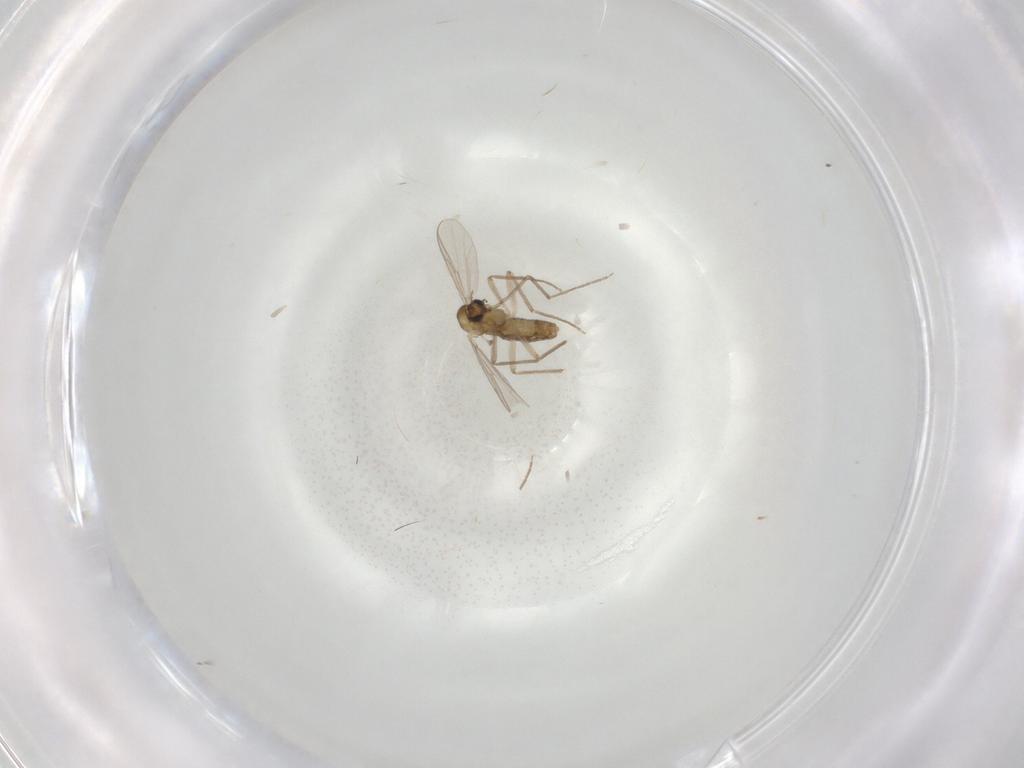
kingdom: Animalia
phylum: Arthropoda
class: Insecta
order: Diptera
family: Chironomidae
